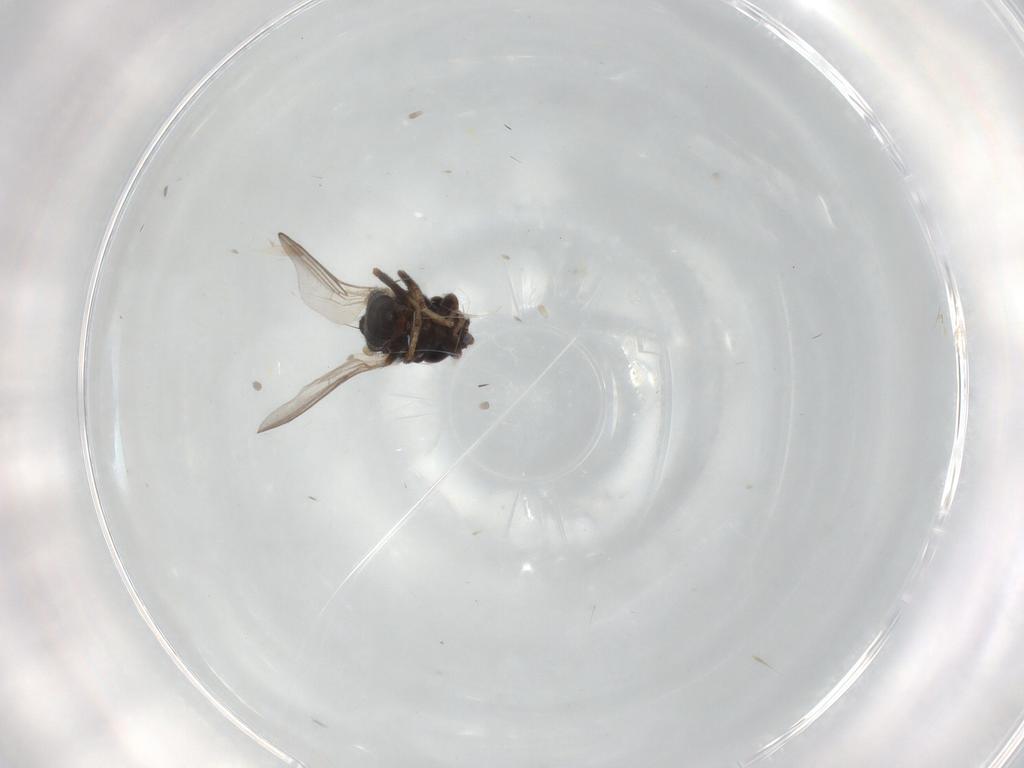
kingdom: Animalia
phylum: Arthropoda
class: Insecta
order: Diptera
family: Chloropidae
